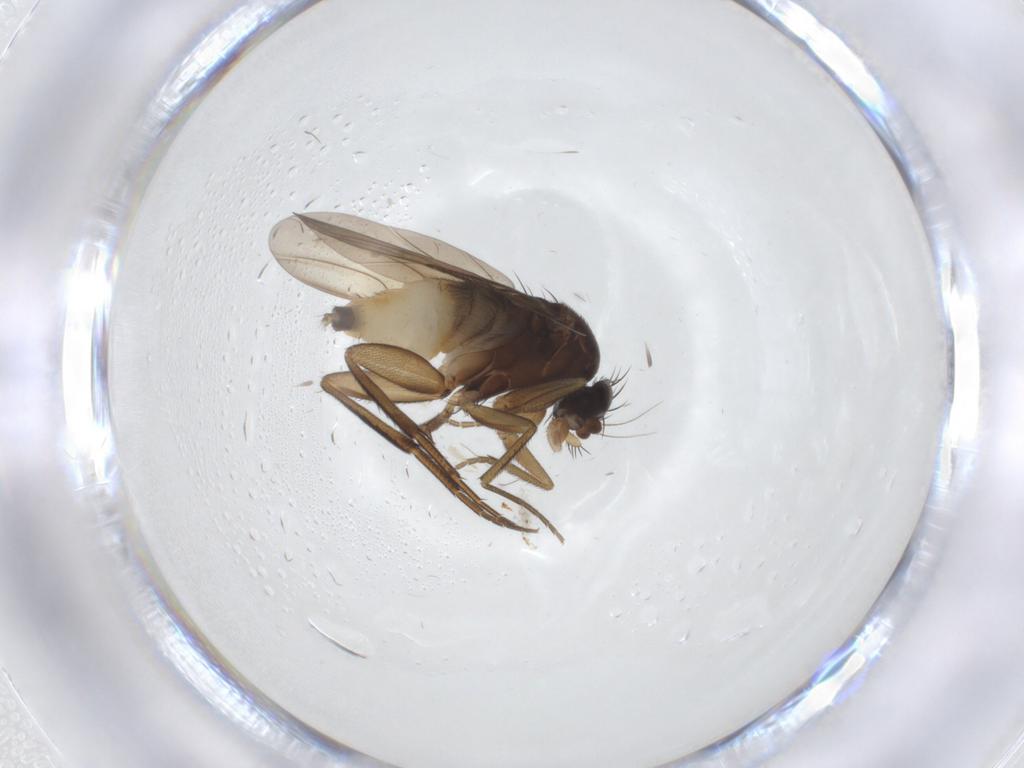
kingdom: Animalia
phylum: Arthropoda
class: Insecta
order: Diptera
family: Phoridae
